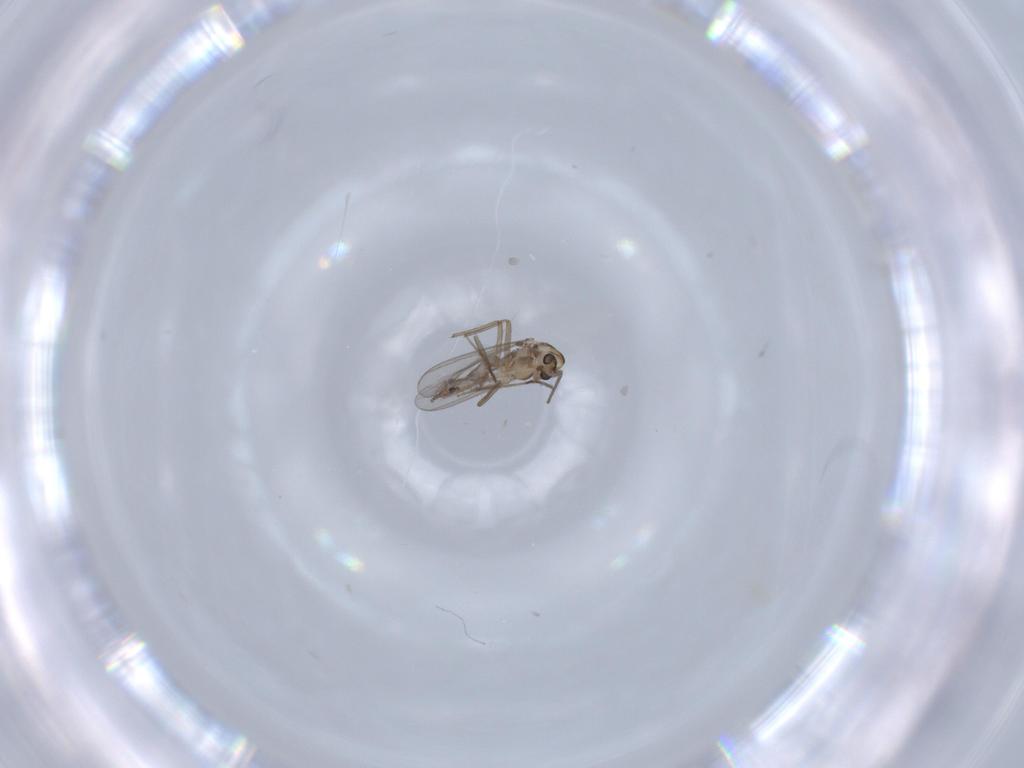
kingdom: Animalia
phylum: Arthropoda
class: Insecta
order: Diptera
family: Chironomidae
